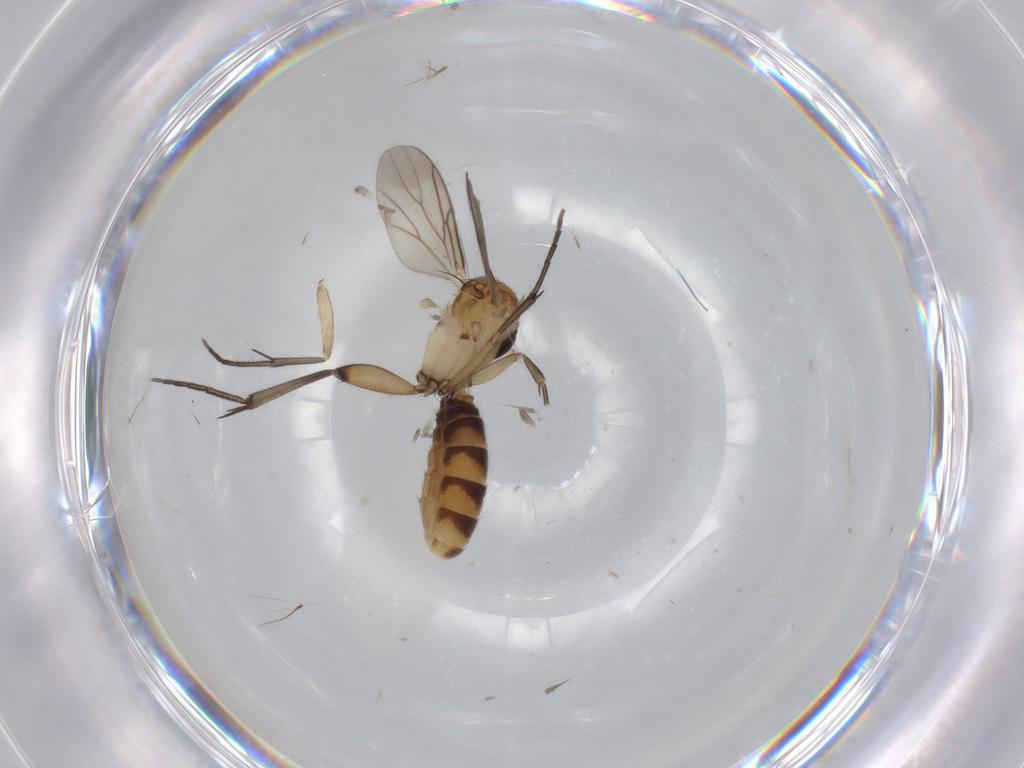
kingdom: Animalia
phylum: Arthropoda
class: Insecta
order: Diptera
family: Mycetophilidae
